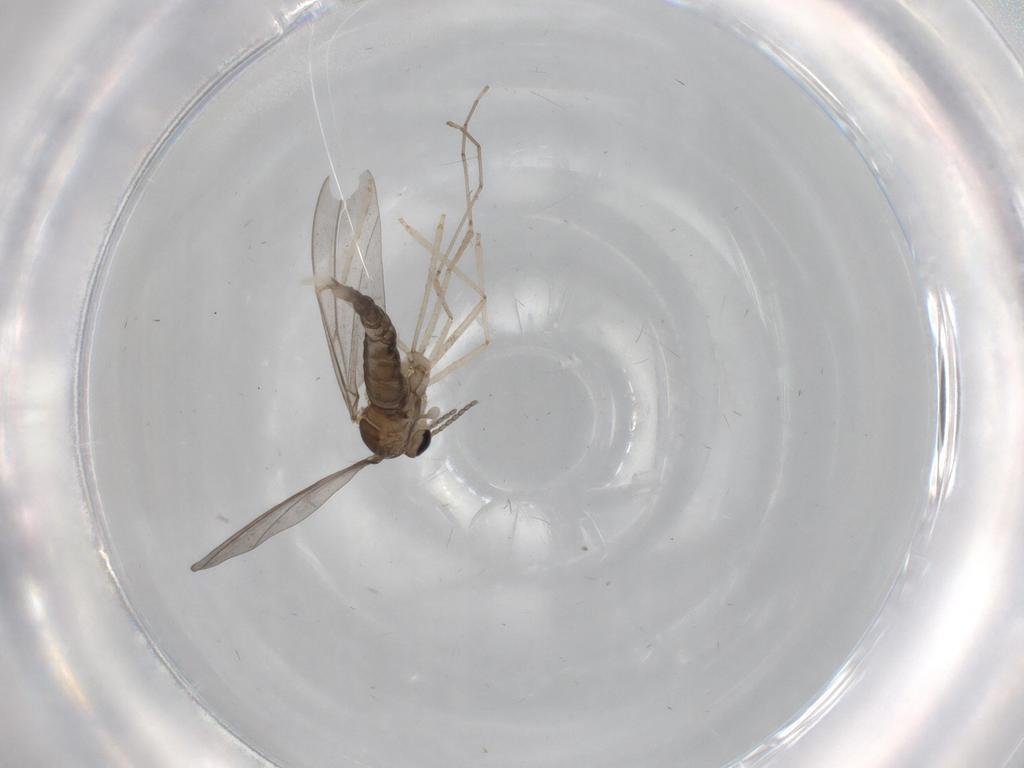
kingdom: Animalia
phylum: Arthropoda
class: Insecta
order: Diptera
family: Cecidomyiidae
